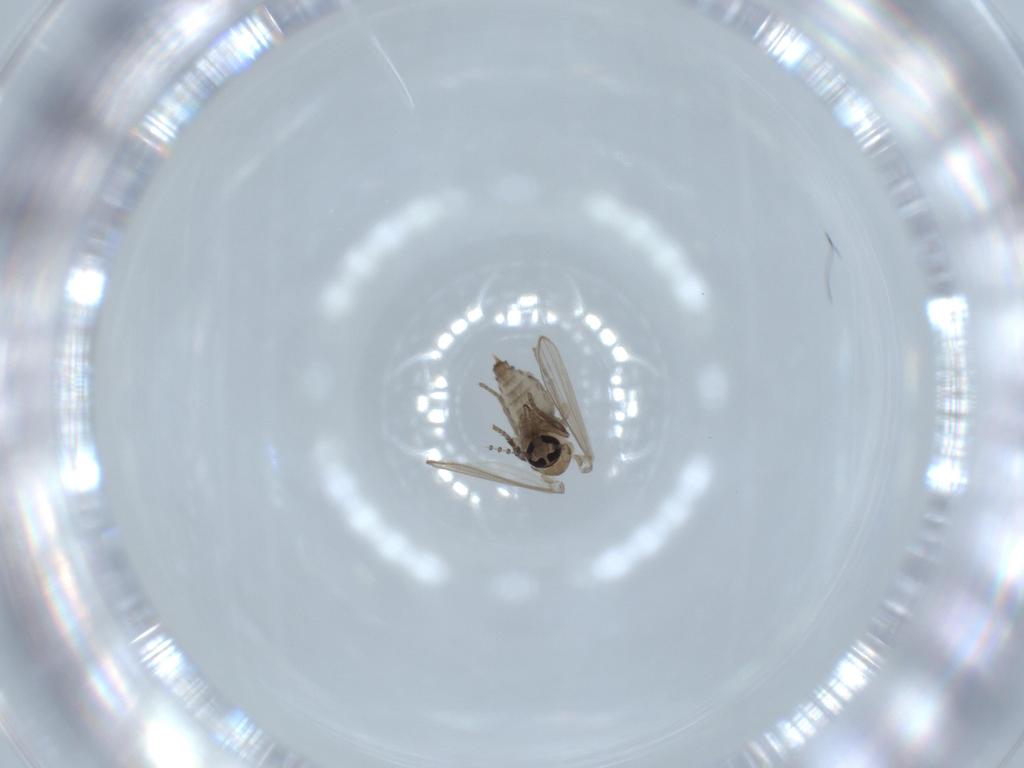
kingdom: Animalia
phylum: Arthropoda
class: Insecta
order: Diptera
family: Psychodidae
